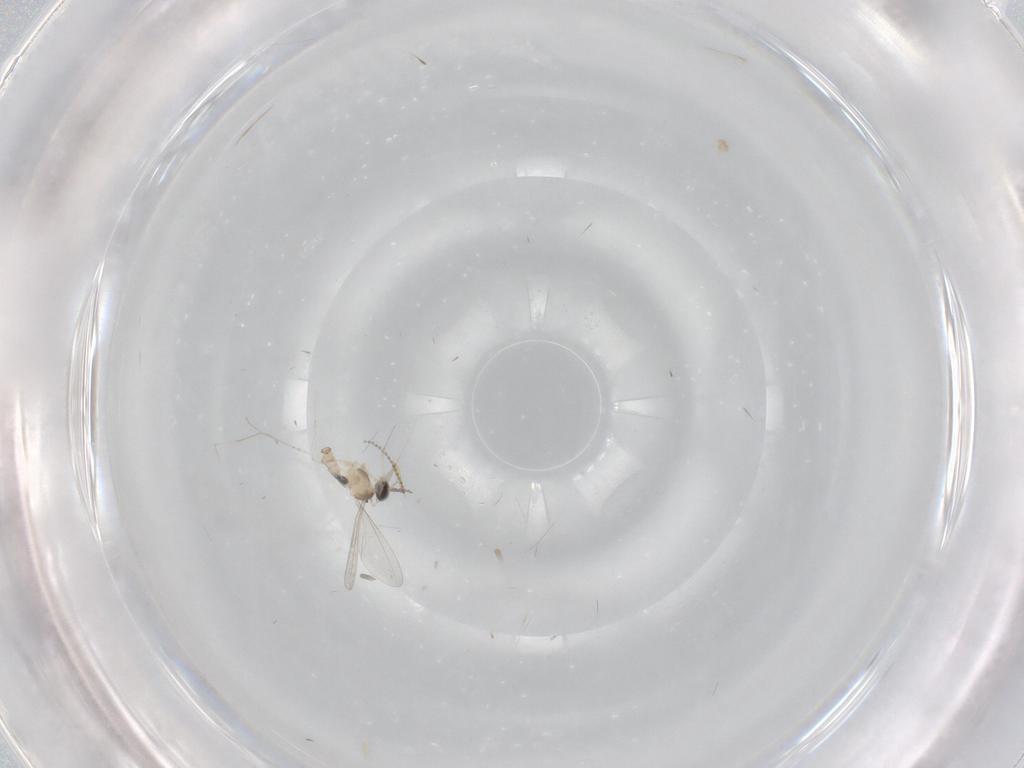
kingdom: Animalia
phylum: Arthropoda
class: Insecta
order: Diptera
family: Cecidomyiidae
